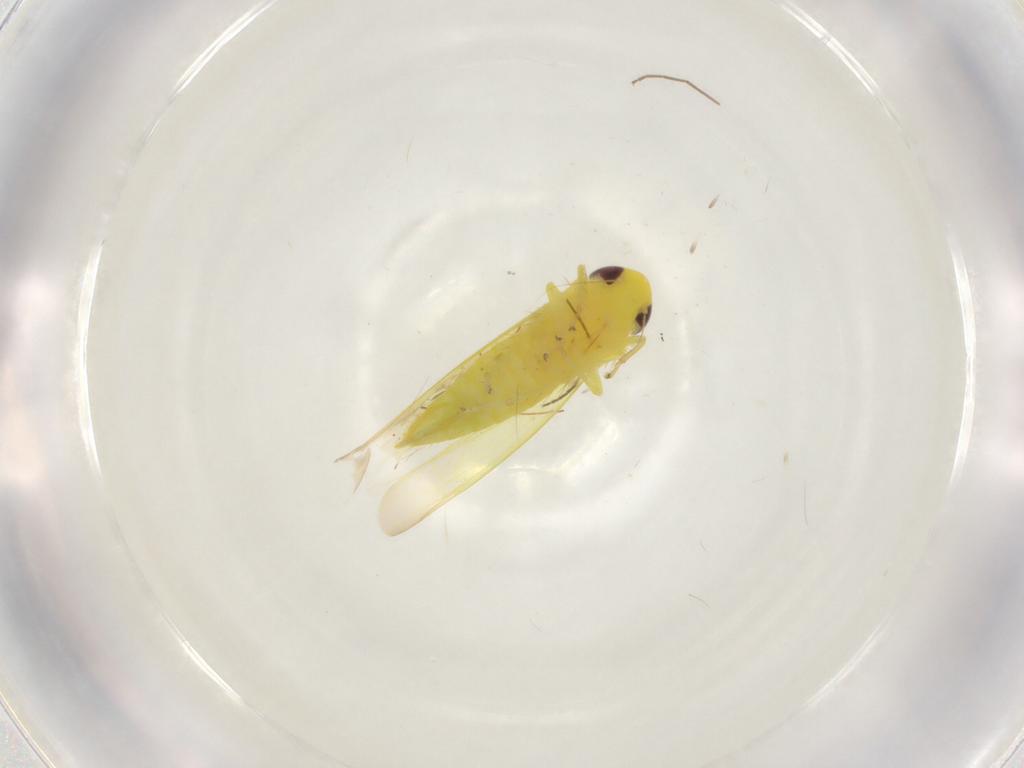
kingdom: Animalia
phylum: Arthropoda
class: Insecta
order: Hemiptera
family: Cicadellidae
